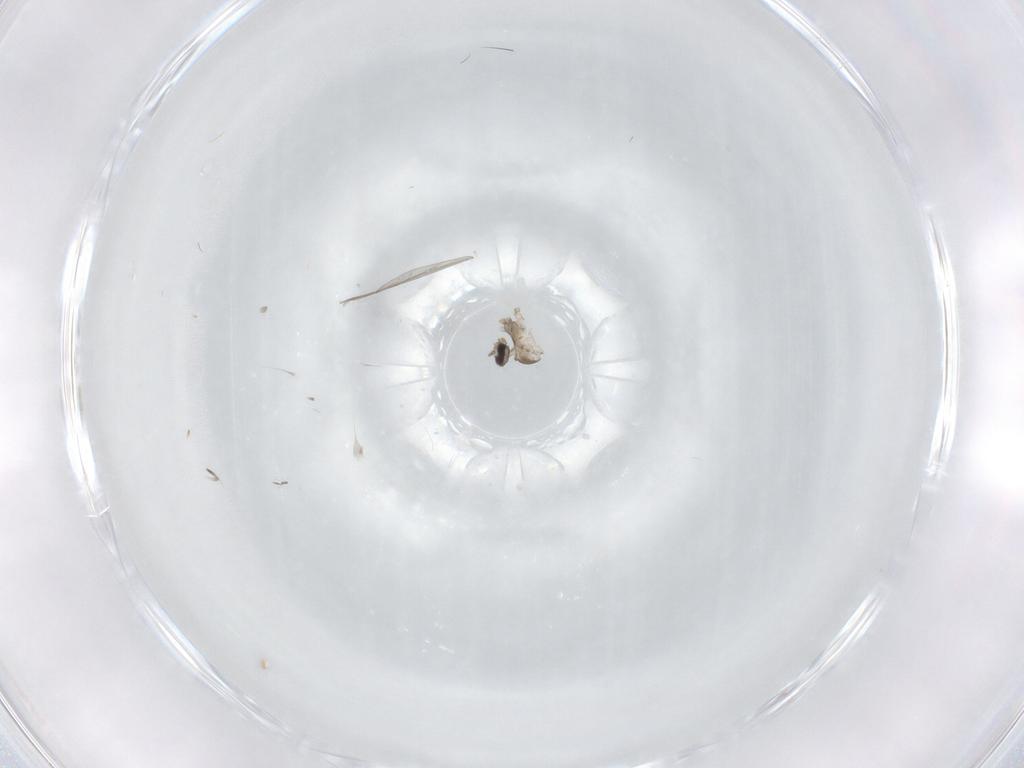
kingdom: Animalia
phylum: Arthropoda
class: Insecta
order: Diptera
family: Cecidomyiidae
